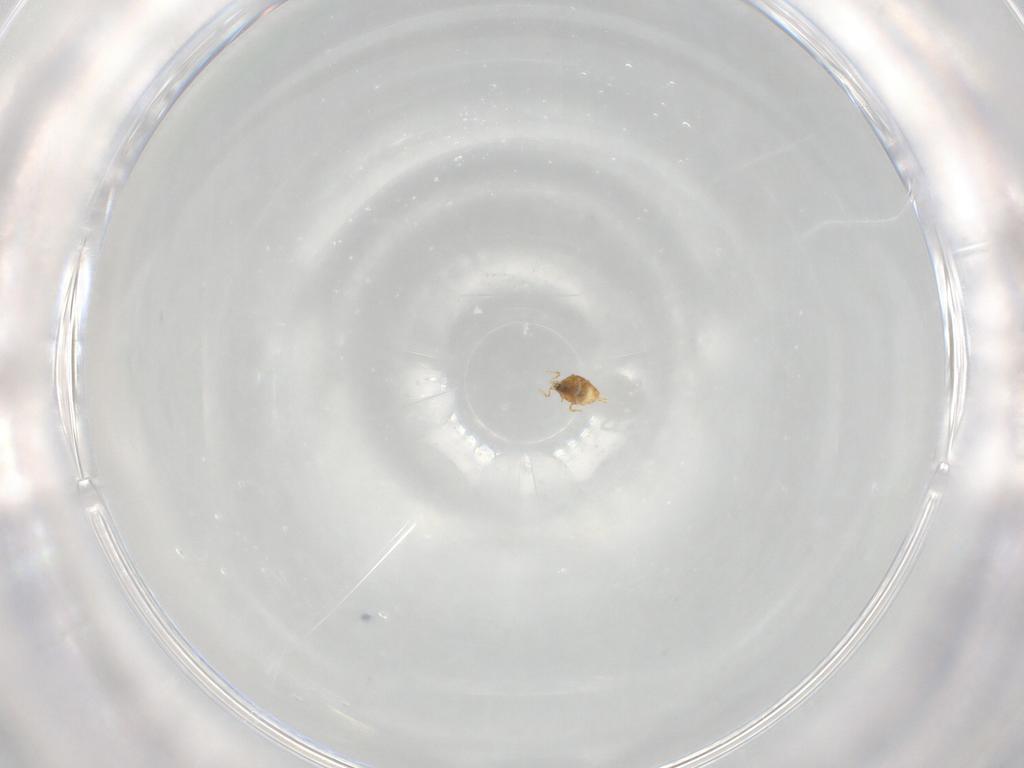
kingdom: Animalia
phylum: Arthropoda
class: Collembola
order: Symphypleona
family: Katiannidae
